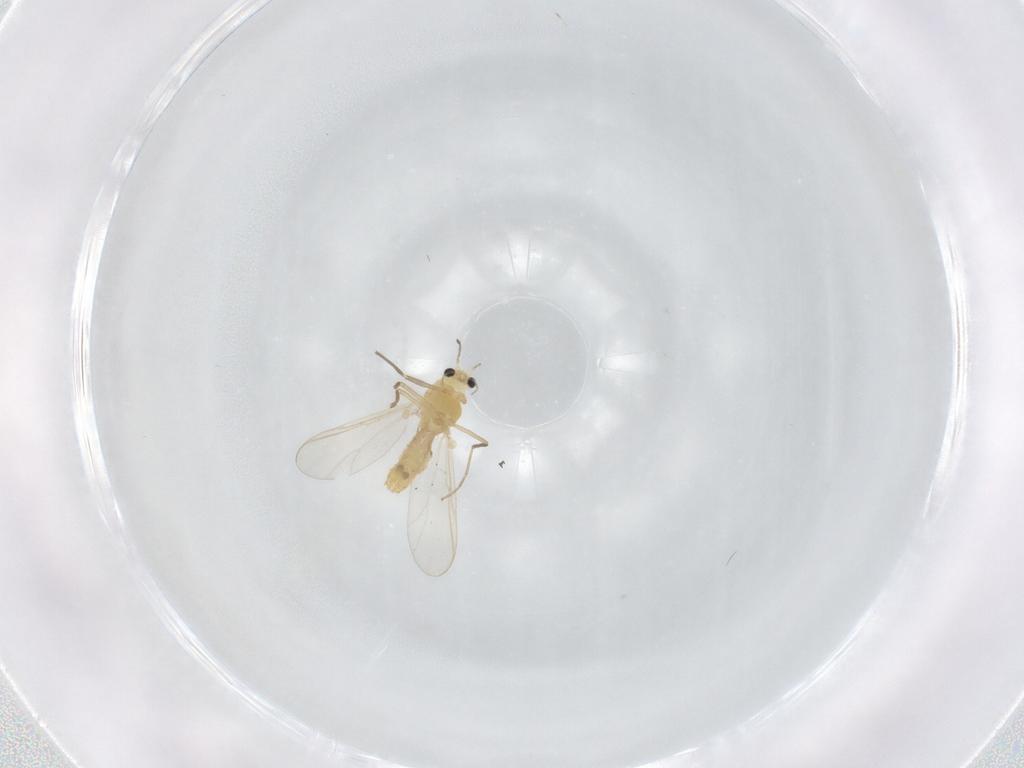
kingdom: Animalia
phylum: Arthropoda
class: Insecta
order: Diptera
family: Chironomidae
